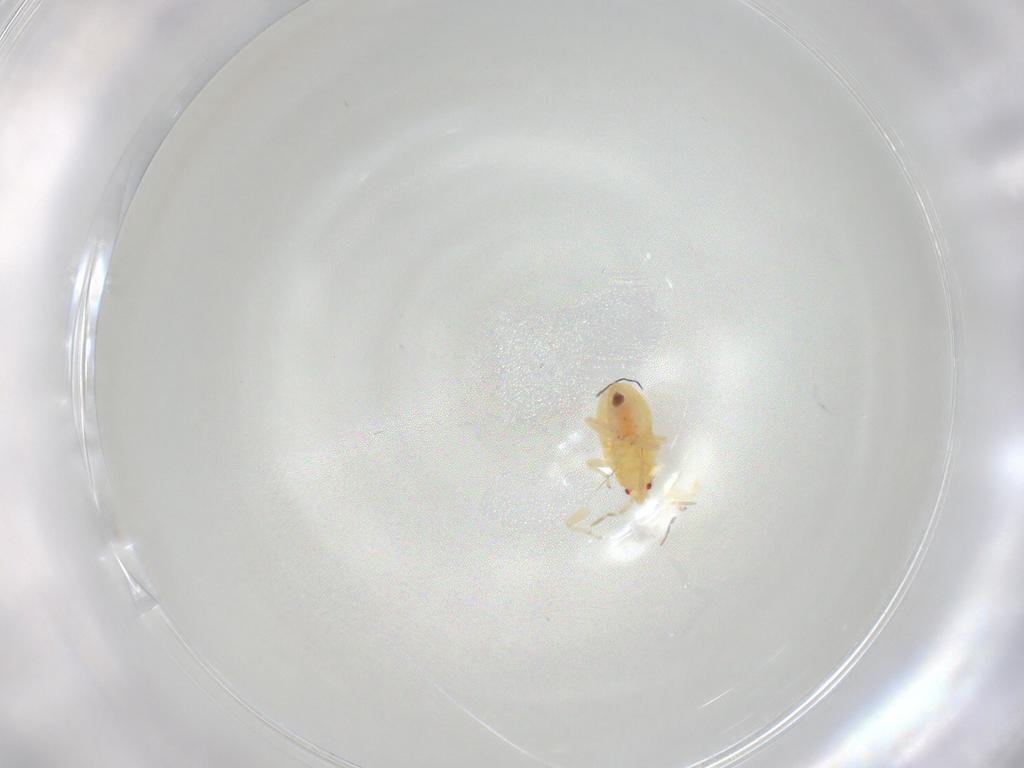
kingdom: Animalia
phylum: Arthropoda
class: Insecta
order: Hemiptera
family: Anthocoridae
